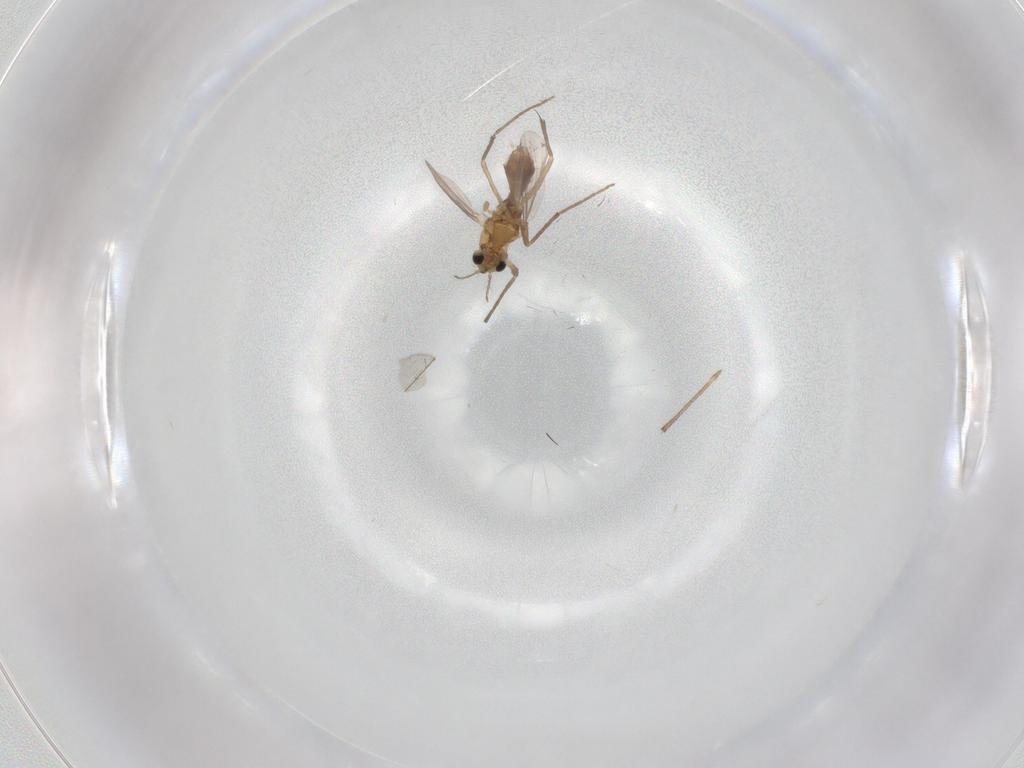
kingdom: Animalia
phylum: Arthropoda
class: Insecta
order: Diptera
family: Chironomidae
